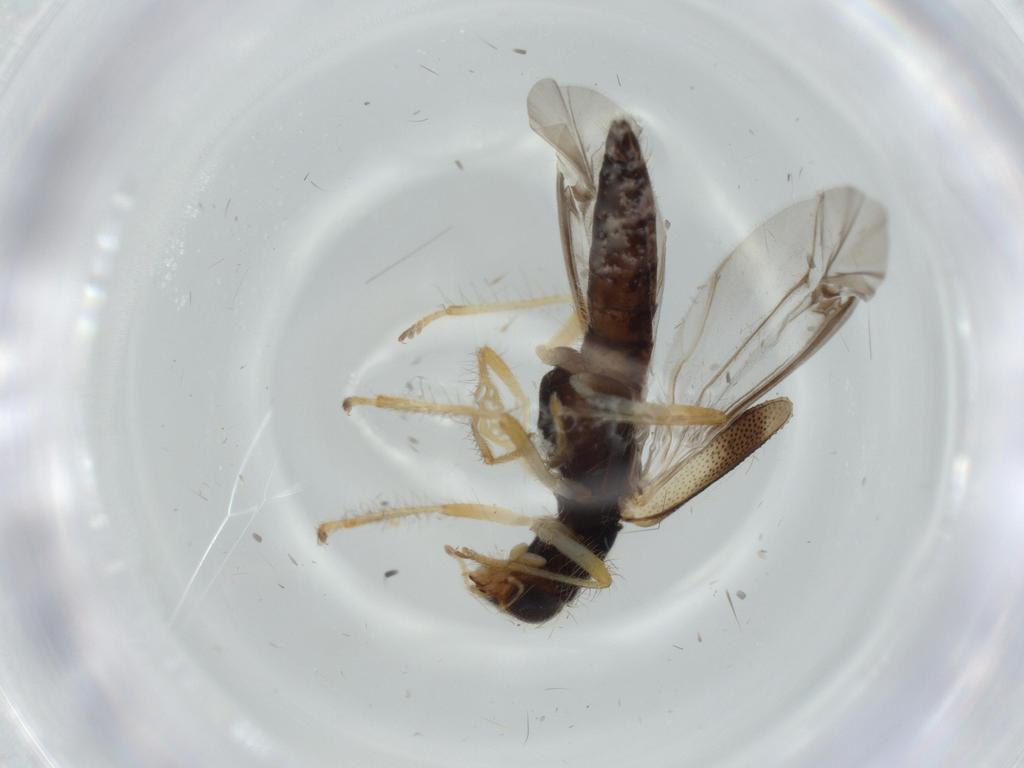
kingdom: Animalia
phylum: Arthropoda
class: Insecta
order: Coleoptera
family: Cleridae
